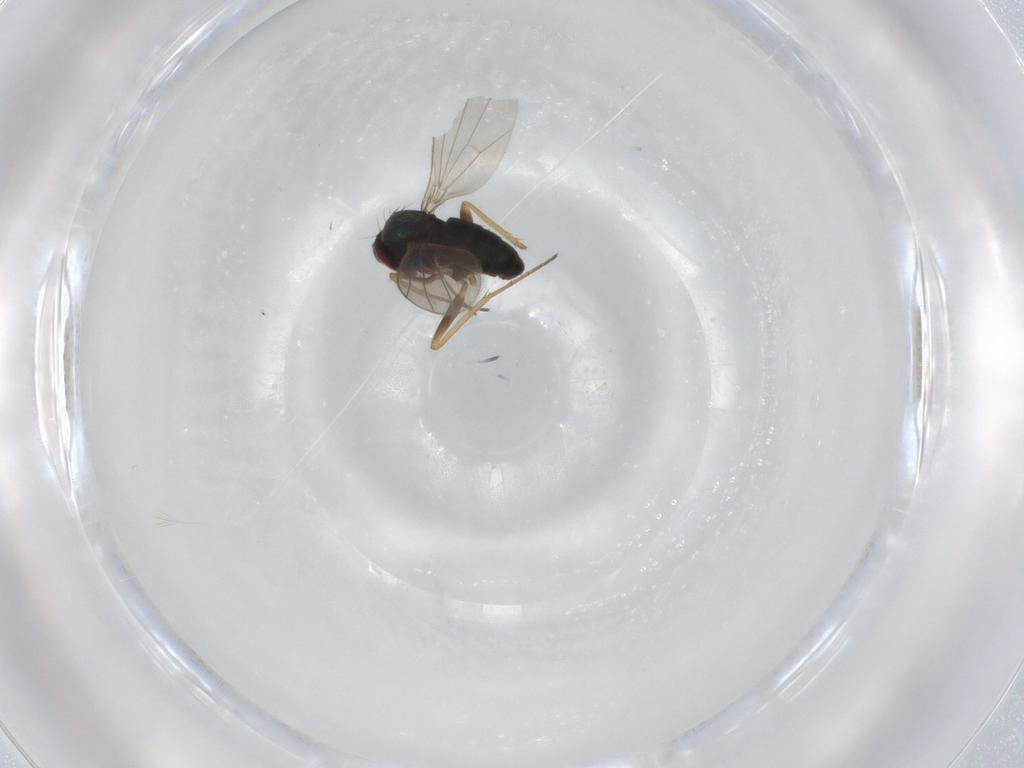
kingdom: Animalia
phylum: Arthropoda
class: Insecta
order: Diptera
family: Dolichopodidae
